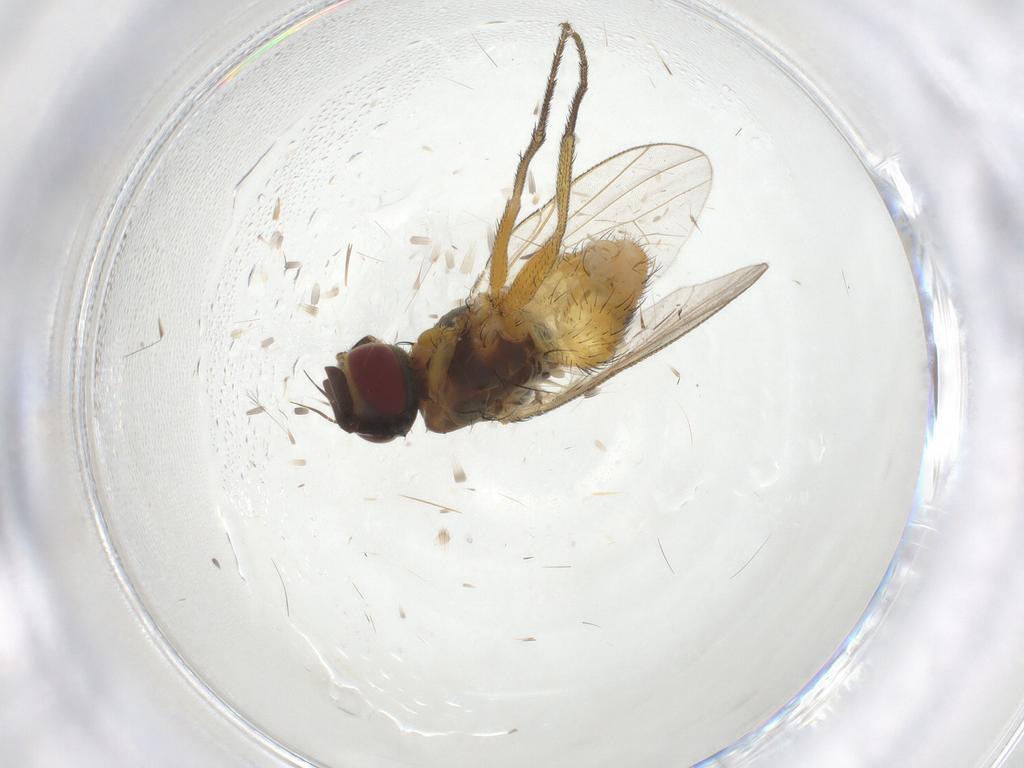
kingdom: Animalia
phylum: Arthropoda
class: Insecta
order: Diptera
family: Muscidae
